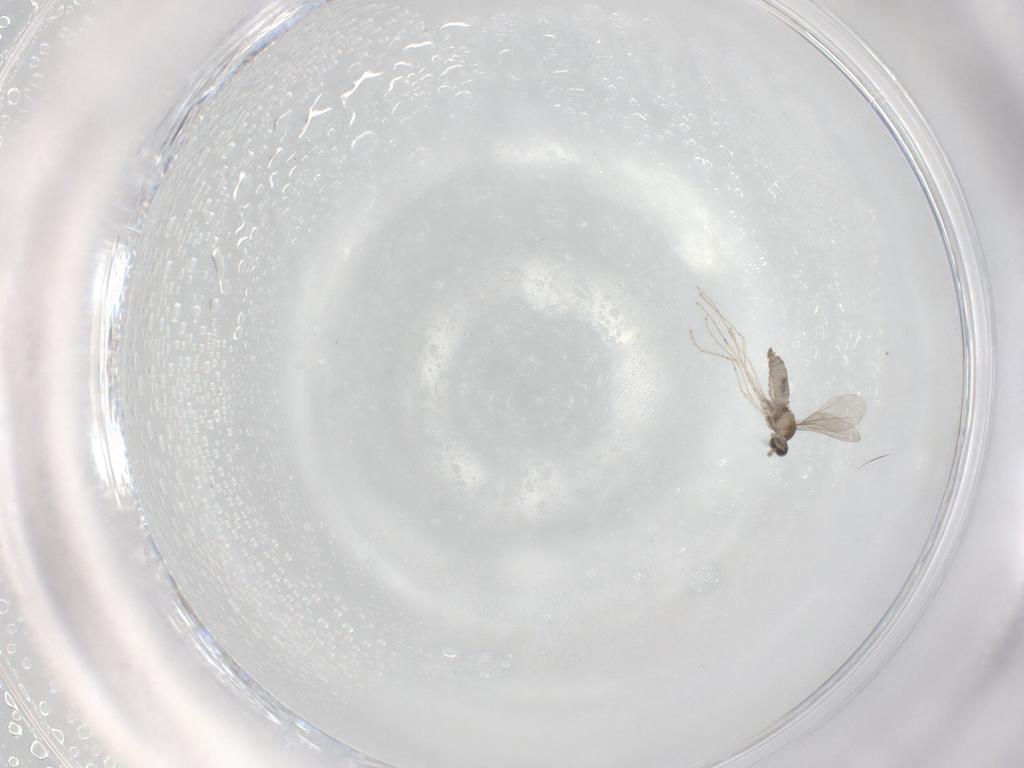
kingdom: Animalia
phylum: Arthropoda
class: Insecta
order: Diptera
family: Cecidomyiidae
